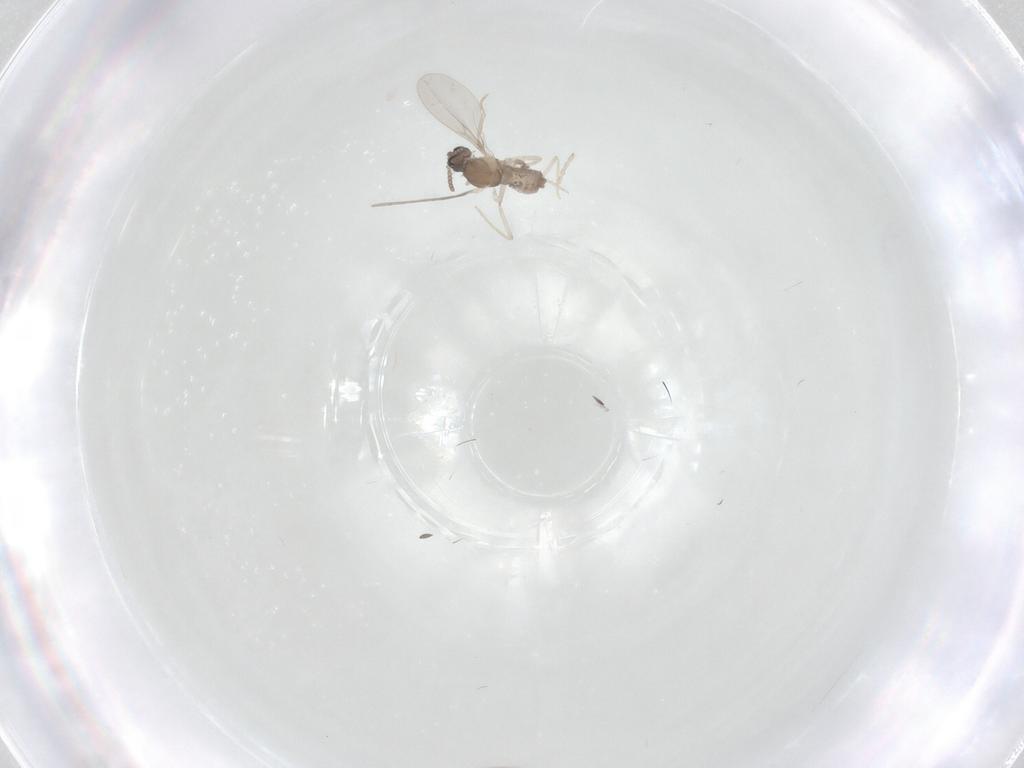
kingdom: Animalia
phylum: Arthropoda
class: Insecta
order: Diptera
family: Cecidomyiidae
